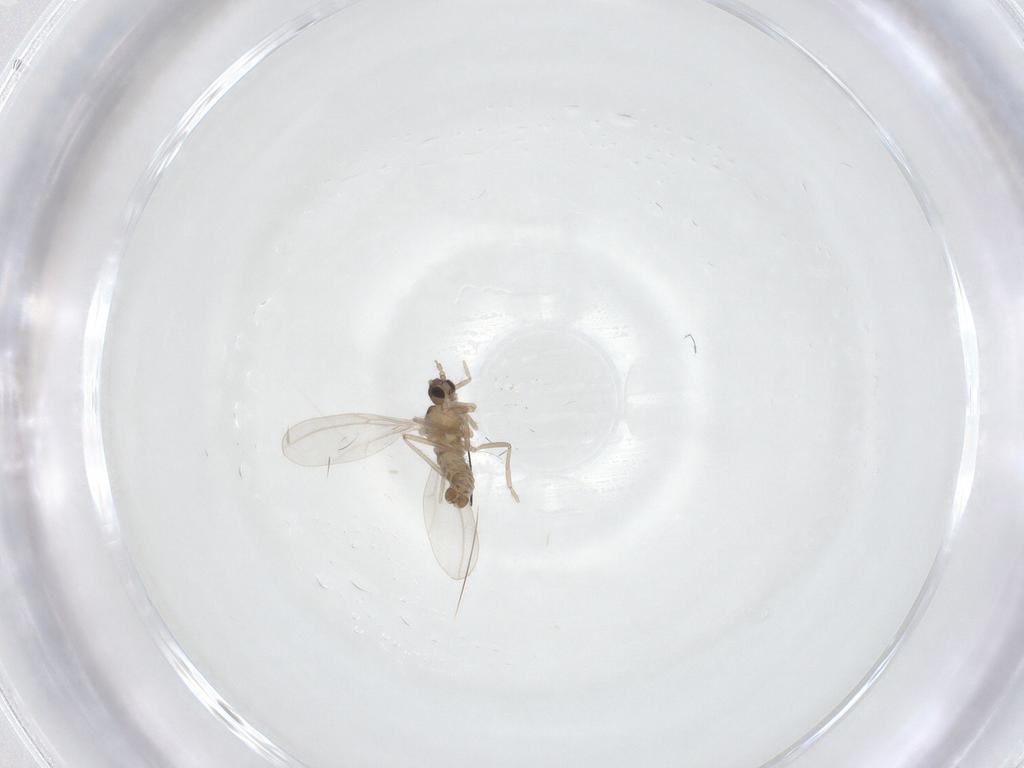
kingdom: Animalia
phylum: Arthropoda
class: Insecta
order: Diptera
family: Cecidomyiidae
